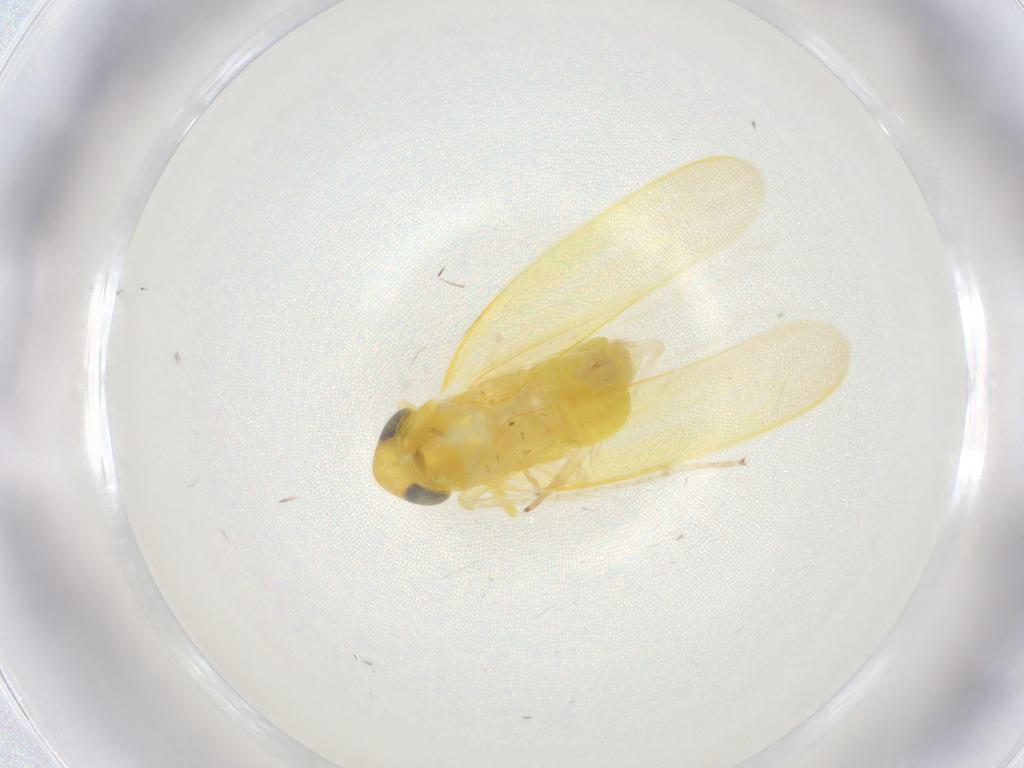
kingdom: Animalia
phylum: Arthropoda
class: Insecta
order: Hemiptera
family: Cicadellidae
